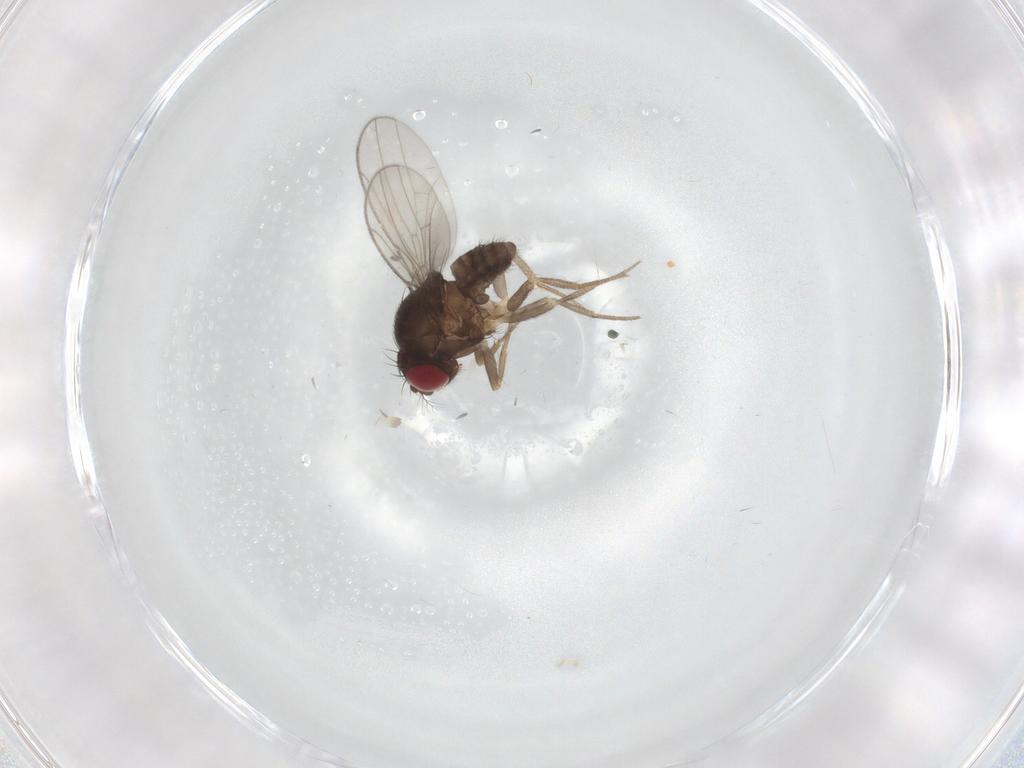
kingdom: Animalia
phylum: Arthropoda
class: Insecta
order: Diptera
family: Drosophilidae
